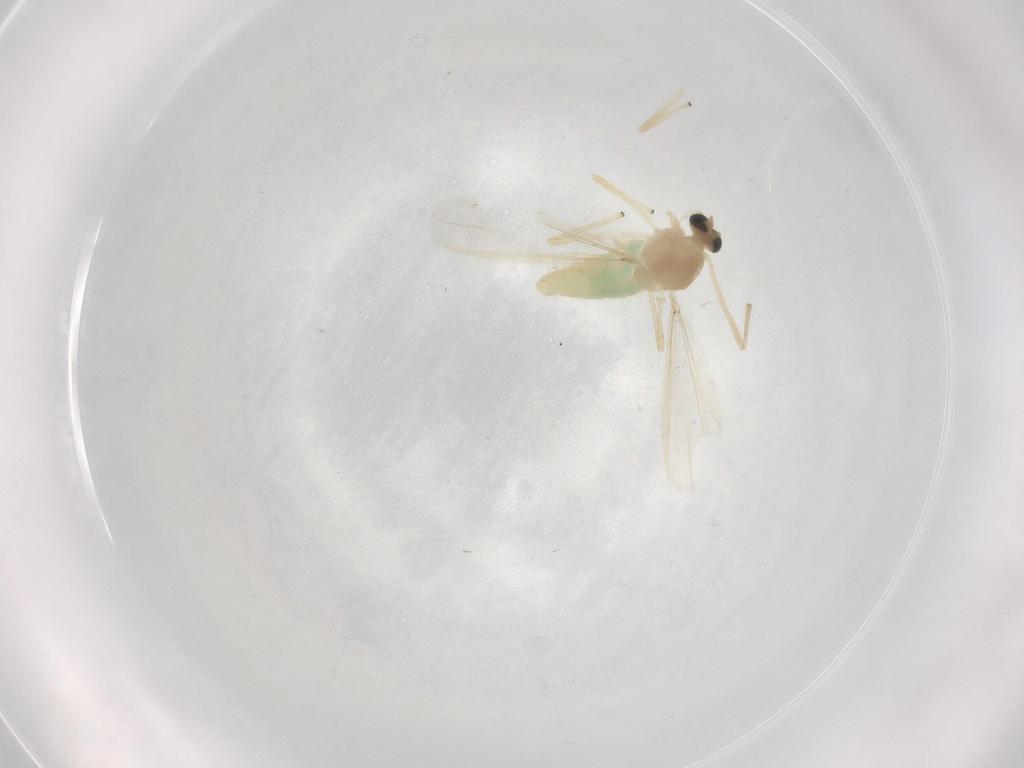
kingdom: Animalia
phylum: Arthropoda
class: Insecta
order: Diptera
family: Chironomidae
